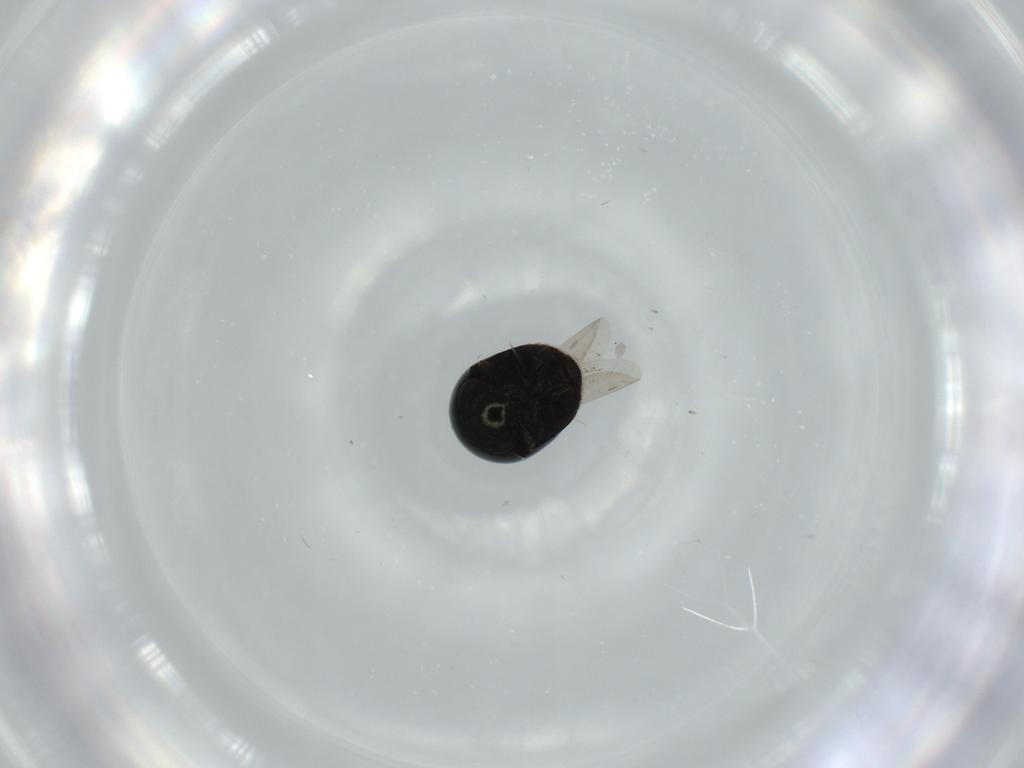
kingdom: Animalia
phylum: Arthropoda
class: Insecta
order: Coleoptera
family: Cybocephalidae
